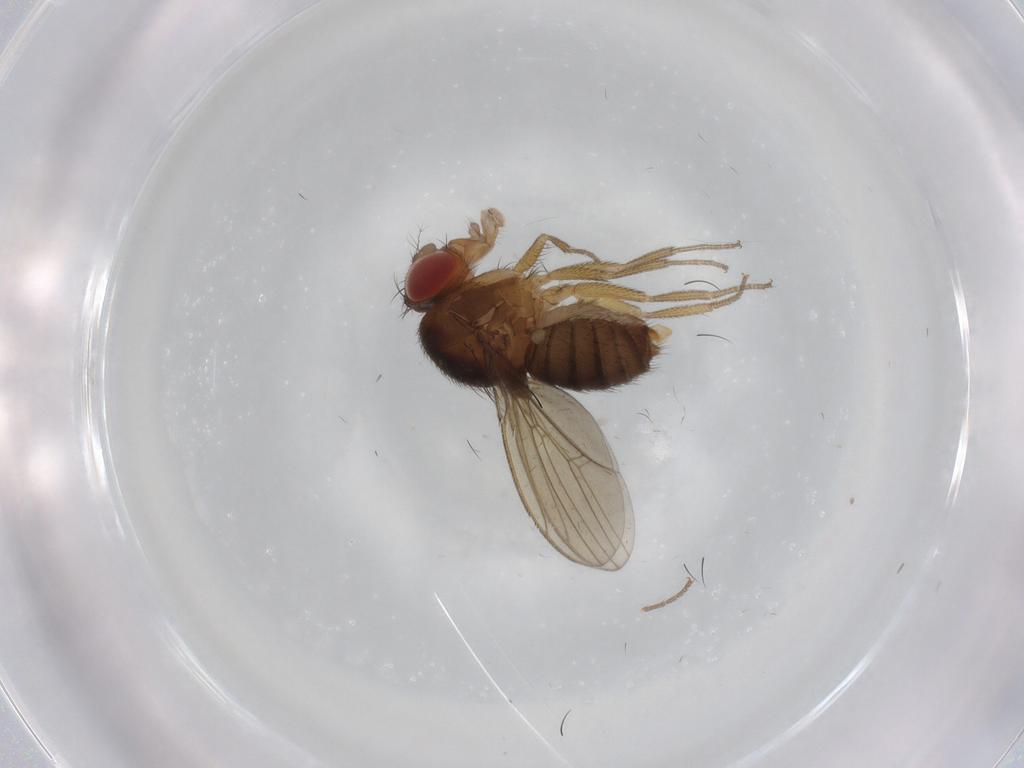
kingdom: Animalia
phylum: Arthropoda
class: Insecta
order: Diptera
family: Drosophilidae
